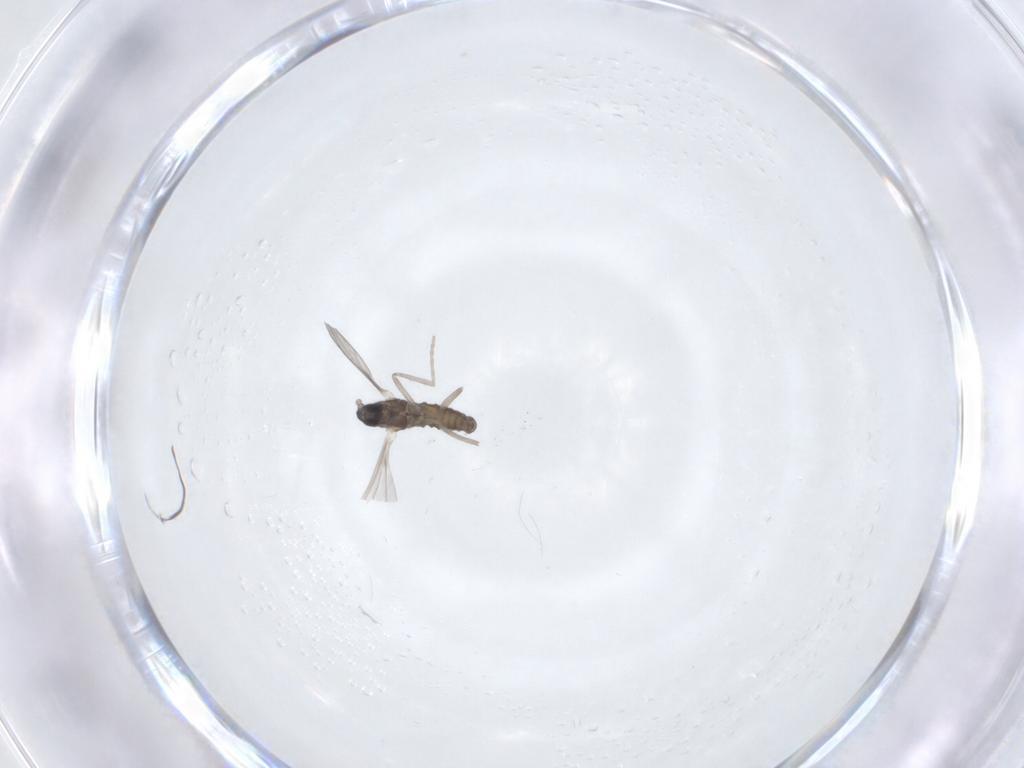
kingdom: Animalia
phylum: Arthropoda
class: Insecta
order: Diptera
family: Cecidomyiidae
